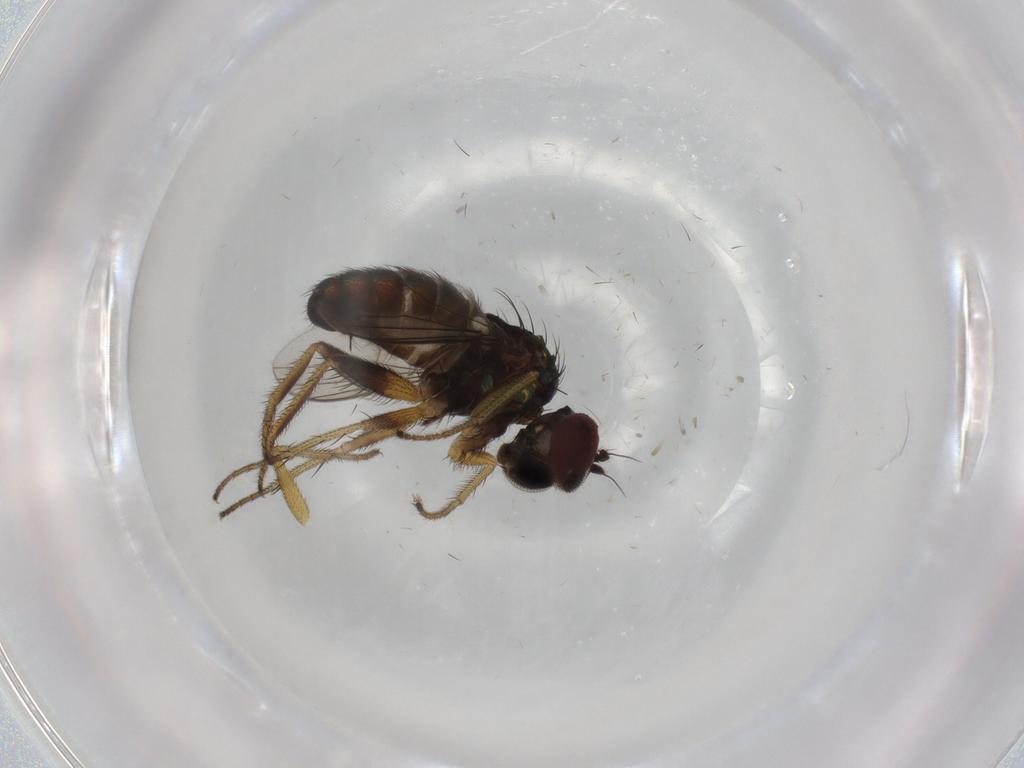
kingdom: Animalia
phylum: Arthropoda
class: Insecta
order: Diptera
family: Dolichopodidae
